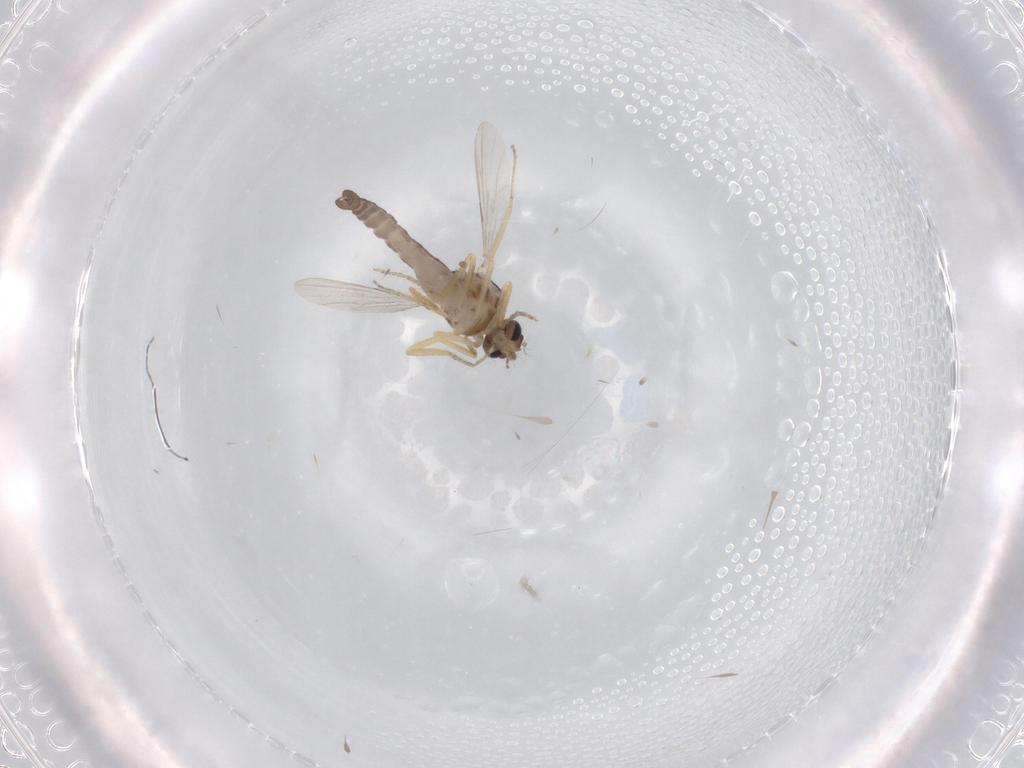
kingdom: Animalia
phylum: Arthropoda
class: Insecta
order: Diptera
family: Ceratopogonidae
